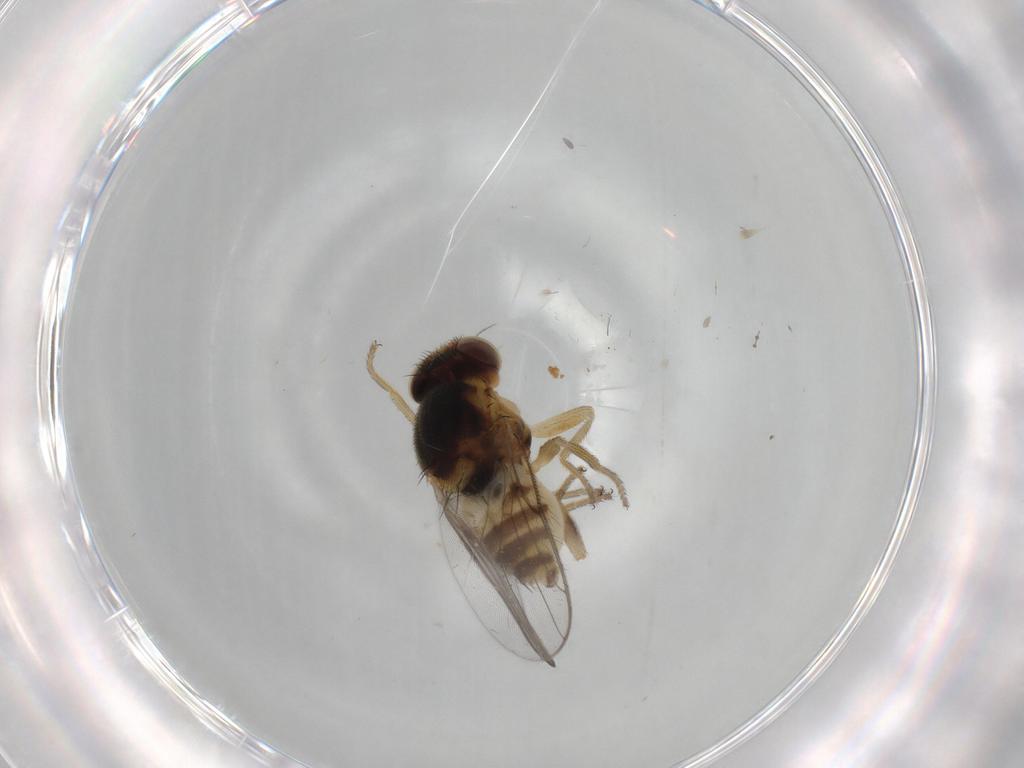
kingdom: Animalia
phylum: Arthropoda
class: Insecta
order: Diptera
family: Chloropidae
